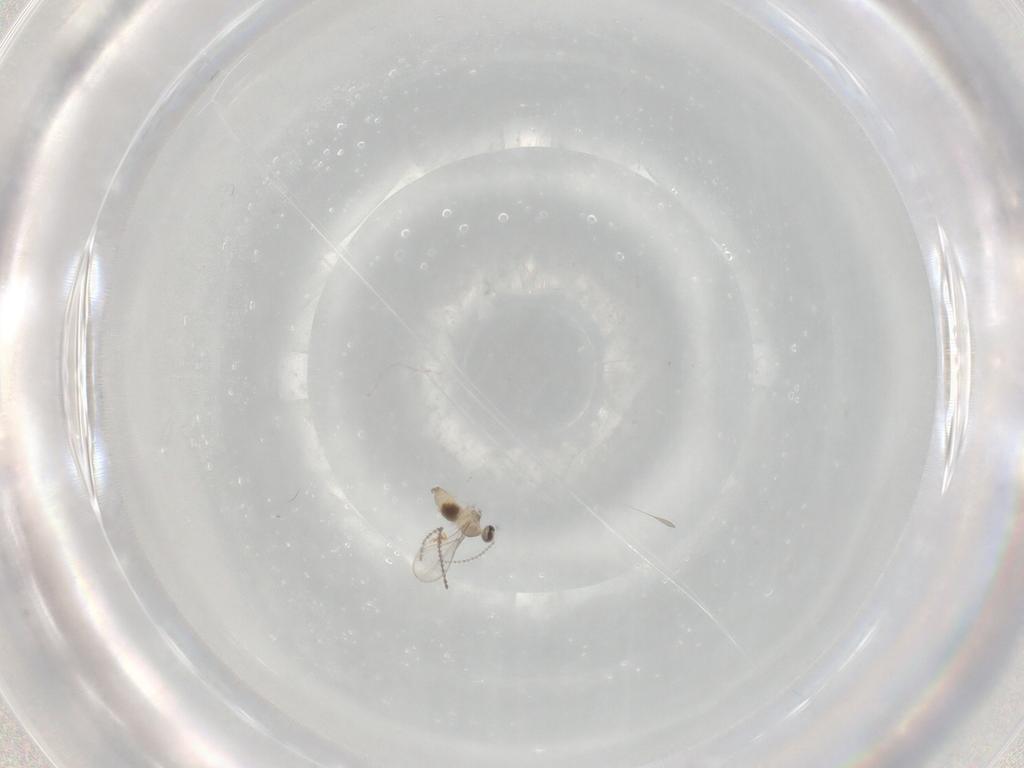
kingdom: Animalia
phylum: Arthropoda
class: Insecta
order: Diptera
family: Cecidomyiidae
